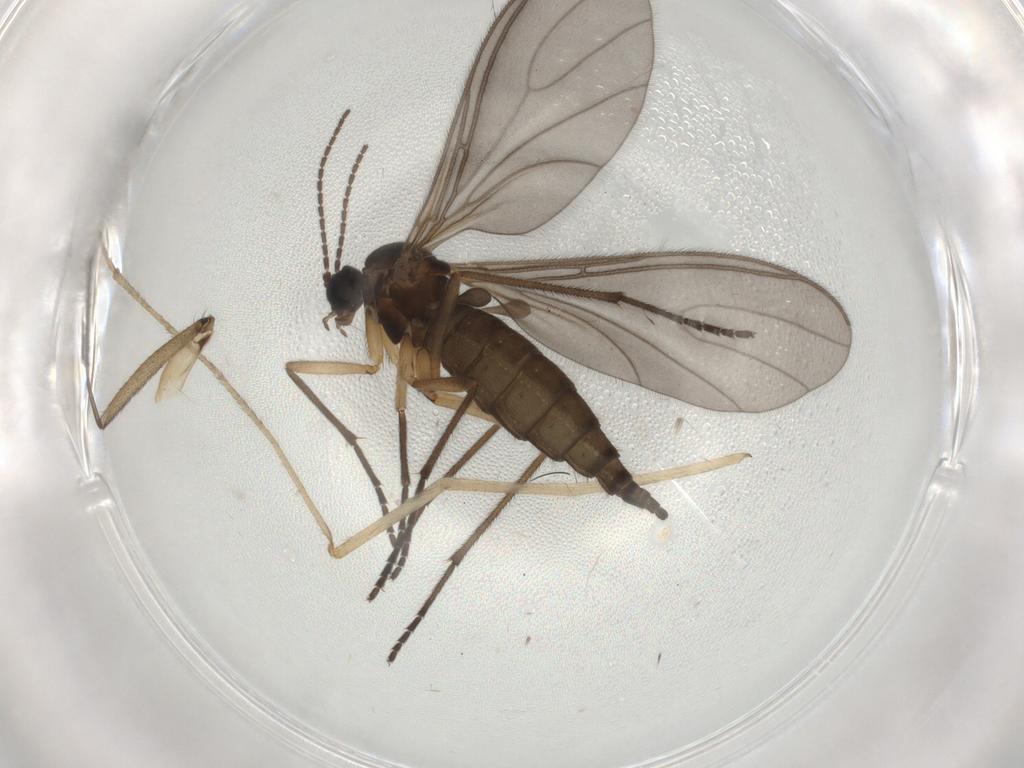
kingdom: Animalia
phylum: Arthropoda
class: Insecta
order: Diptera
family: Sciaridae
